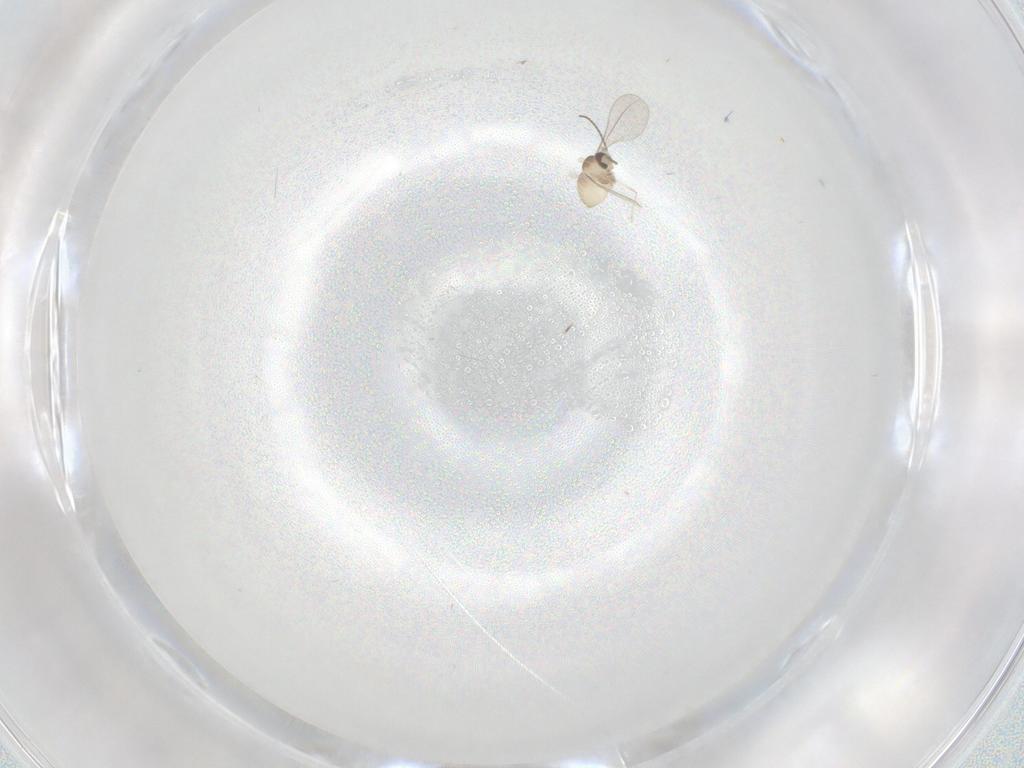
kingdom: Animalia
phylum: Arthropoda
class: Insecta
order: Diptera
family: Cecidomyiidae
